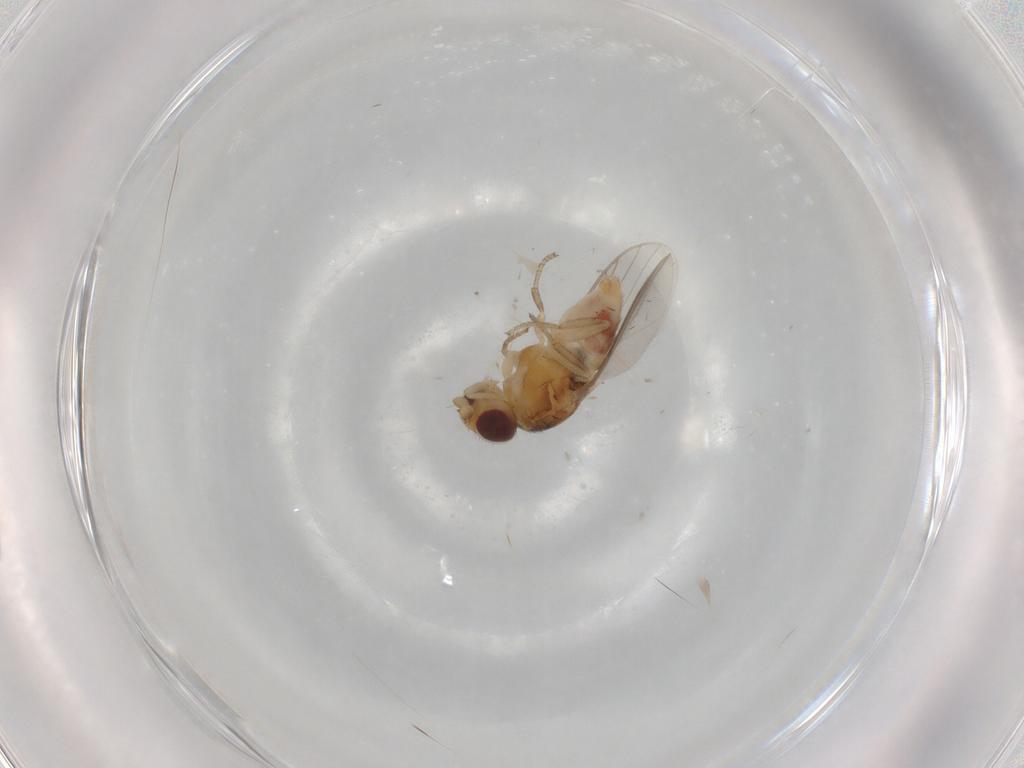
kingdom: Animalia
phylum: Arthropoda
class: Insecta
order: Diptera
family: Chloropidae
